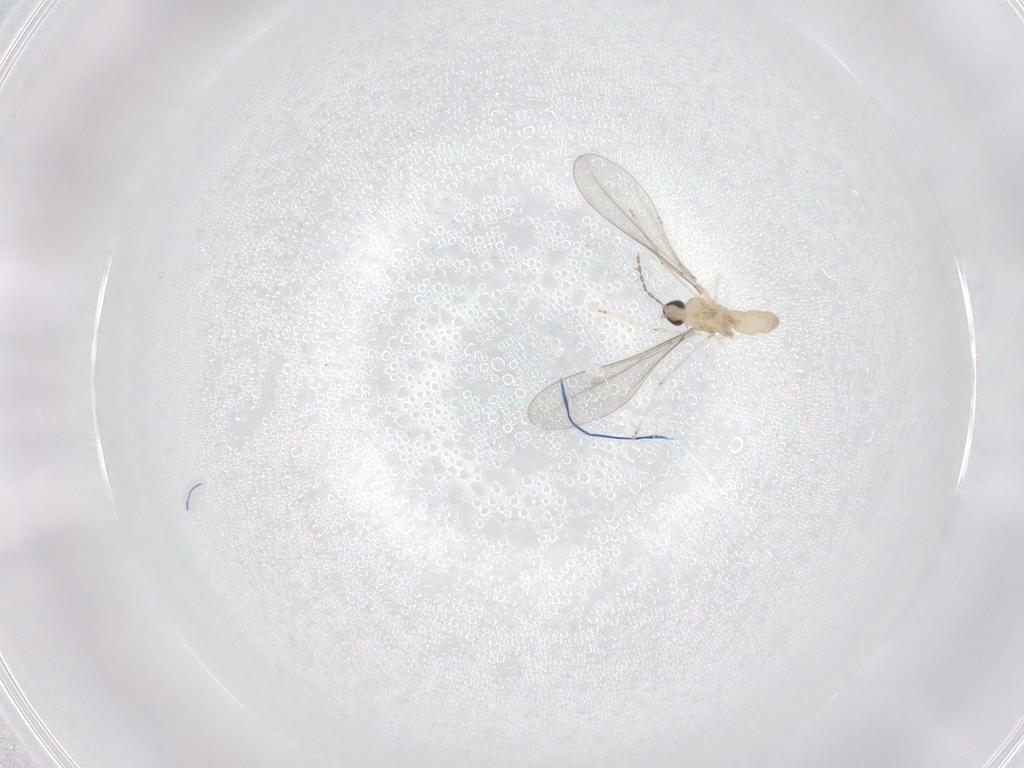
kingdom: Animalia
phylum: Arthropoda
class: Insecta
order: Diptera
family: Cecidomyiidae
